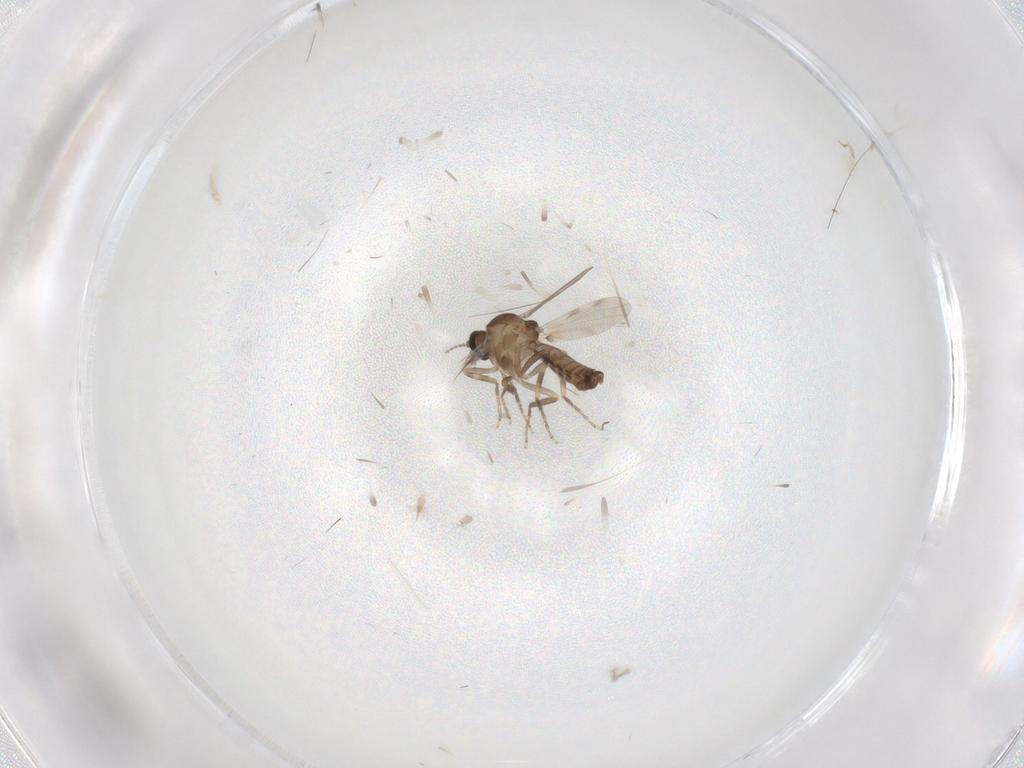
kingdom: Animalia
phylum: Arthropoda
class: Insecta
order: Diptera
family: Ceratopogonidae
